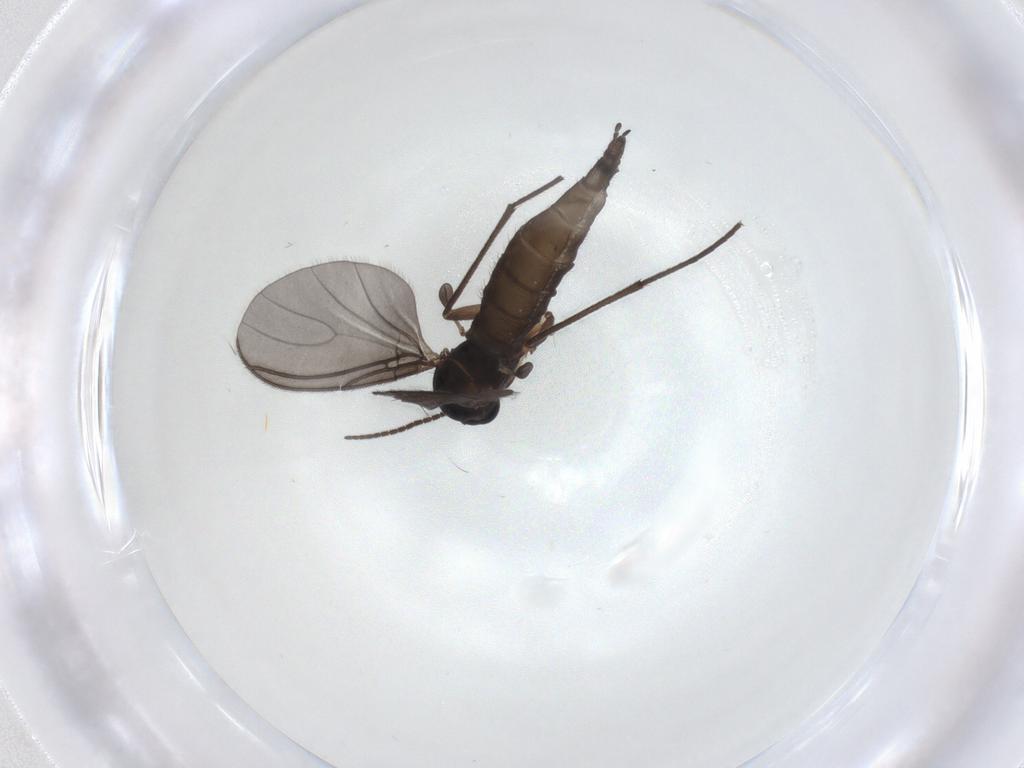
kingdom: Animalia
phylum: Arthropoda
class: Insecta
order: Diptera
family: Sciaridae
